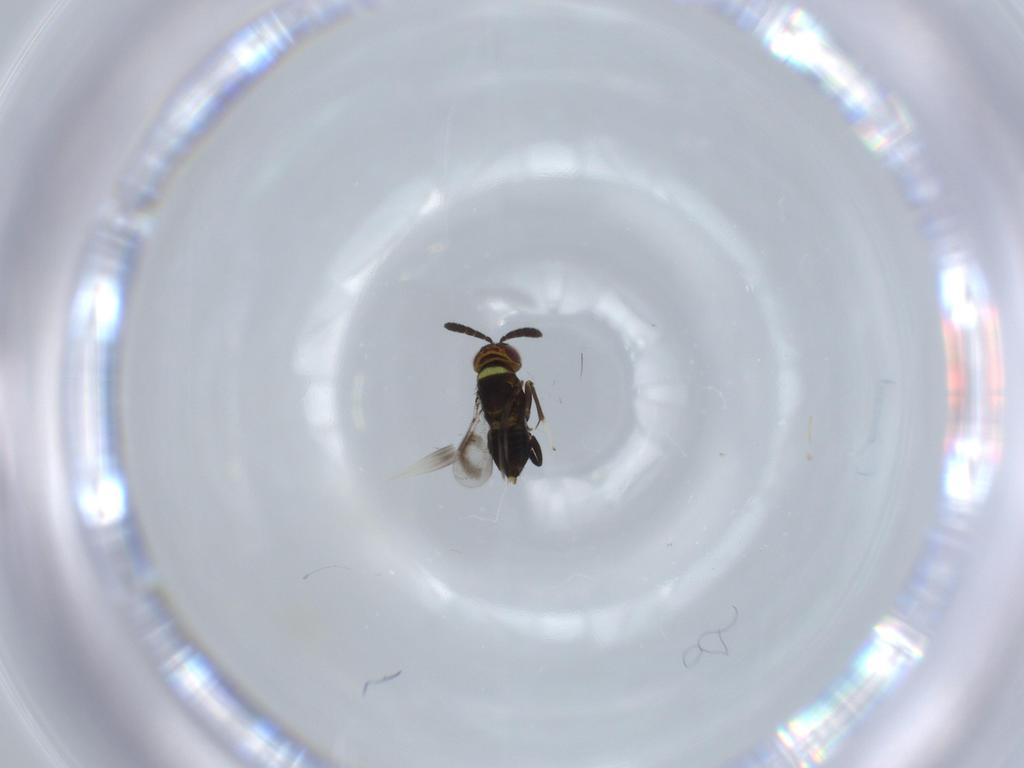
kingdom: Animalia
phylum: Arthropoda
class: Insecta
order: Hymenoptera
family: Aphelinidae
